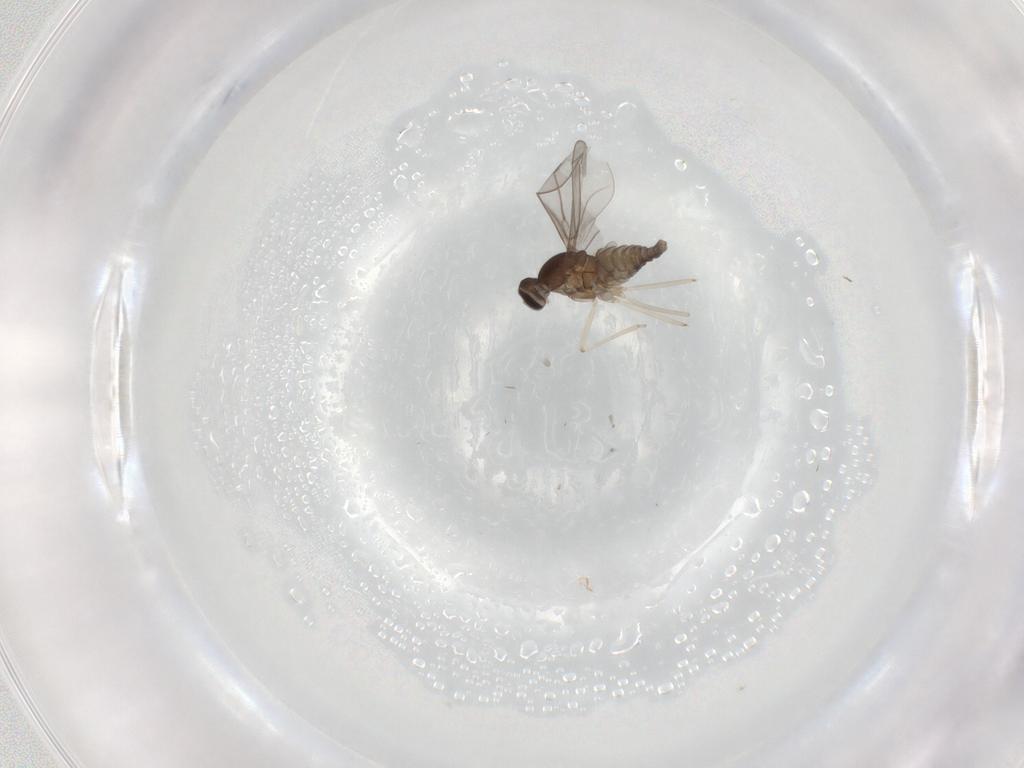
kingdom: Animalia
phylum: Arthropoda
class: Insecta
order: Diptera
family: Cecidomyiidae
